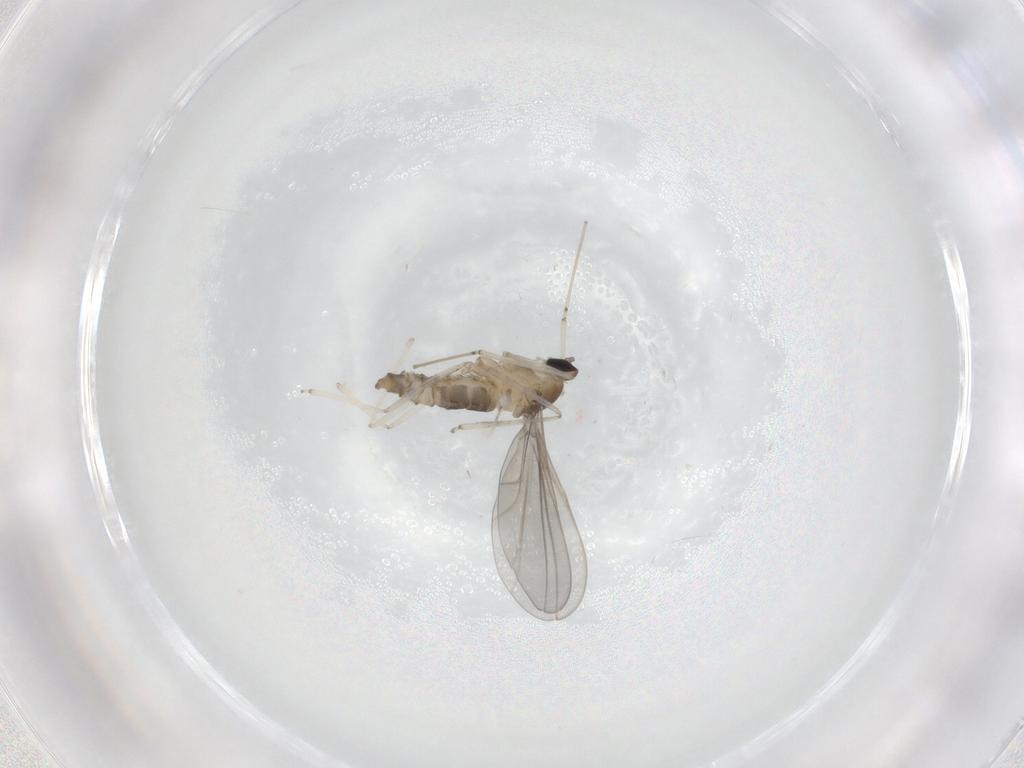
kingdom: Animalia
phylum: Arthropoda
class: Insecta
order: Diptera
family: Cecidomyiidae
